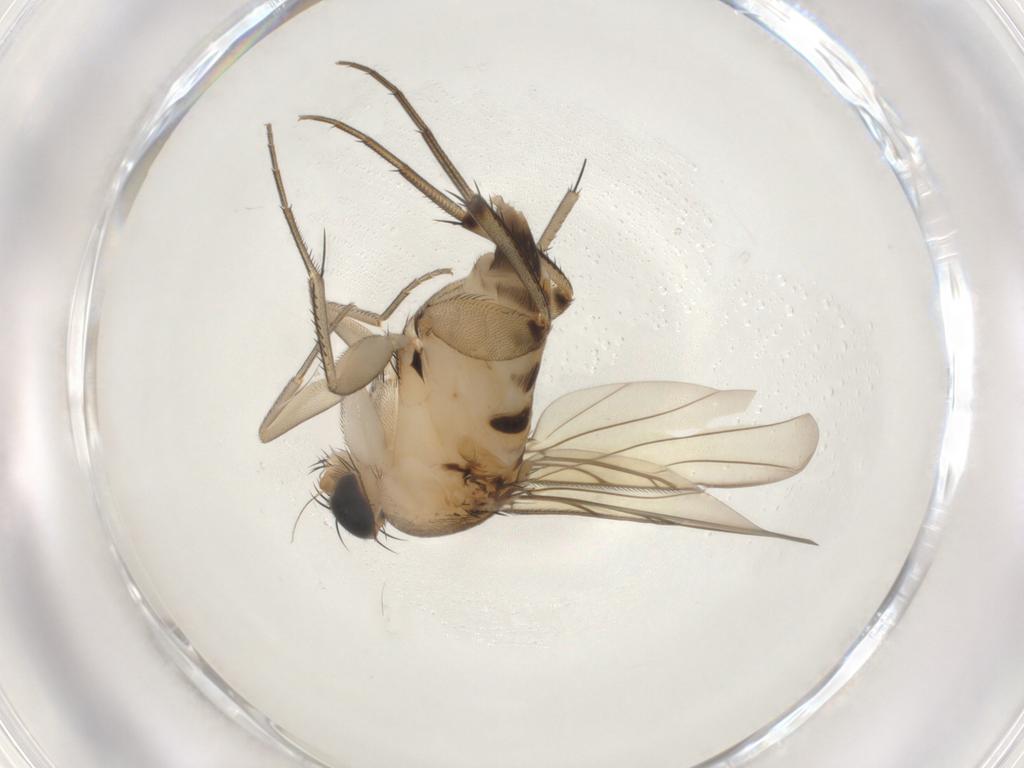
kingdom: Animalia
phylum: Arthropoda
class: Insecta
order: Diptera
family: Phoridae
